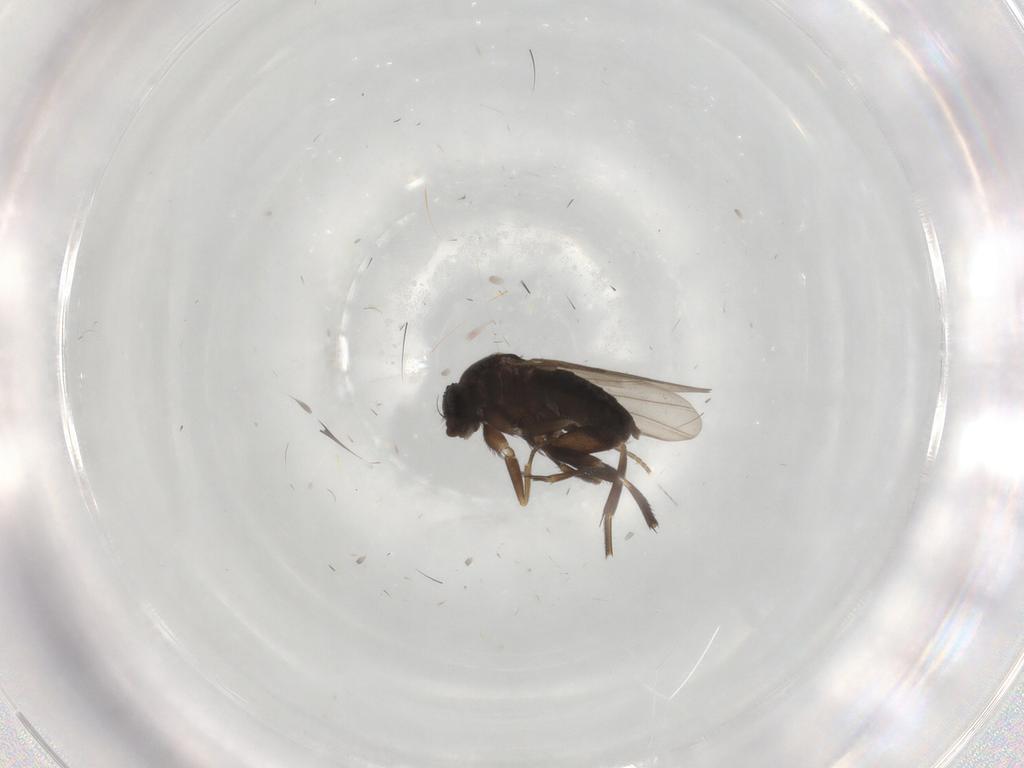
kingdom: Animalia
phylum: Arthropoda
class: Insecta
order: Diptera
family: Phoridae
